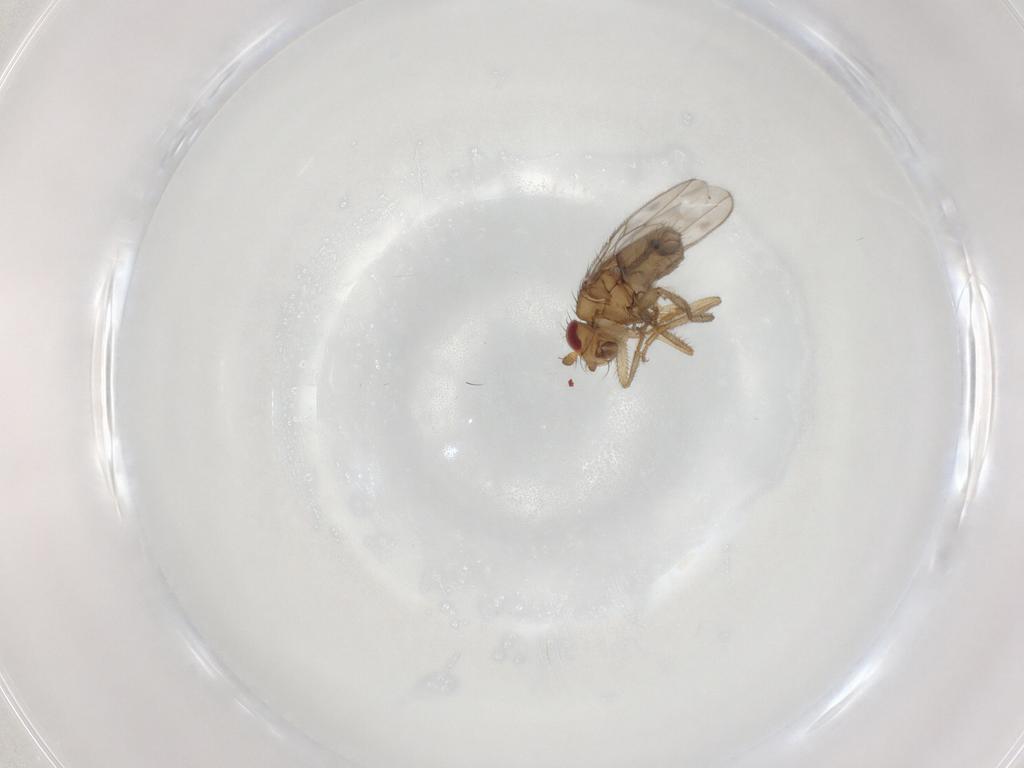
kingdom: Animalia
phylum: Arthropoda
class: Insecta
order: Diptera
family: Sphaeroceridae
